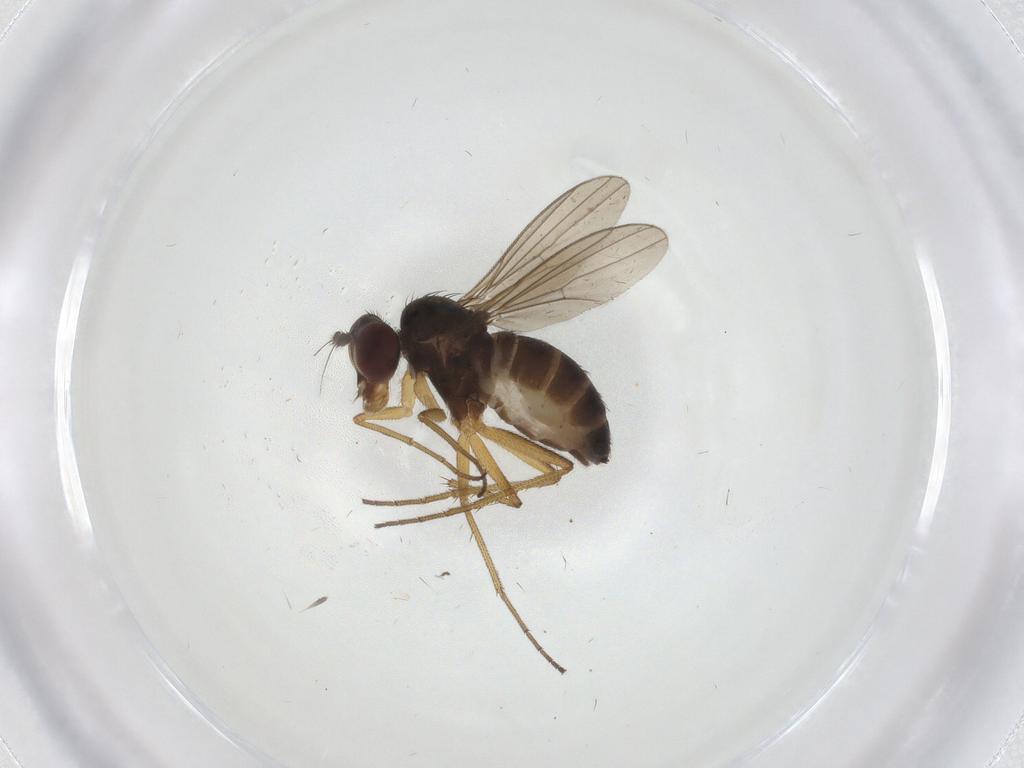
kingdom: Animalia
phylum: Arthropoda
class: Insecta
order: Diptera
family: Dolichopodidae
